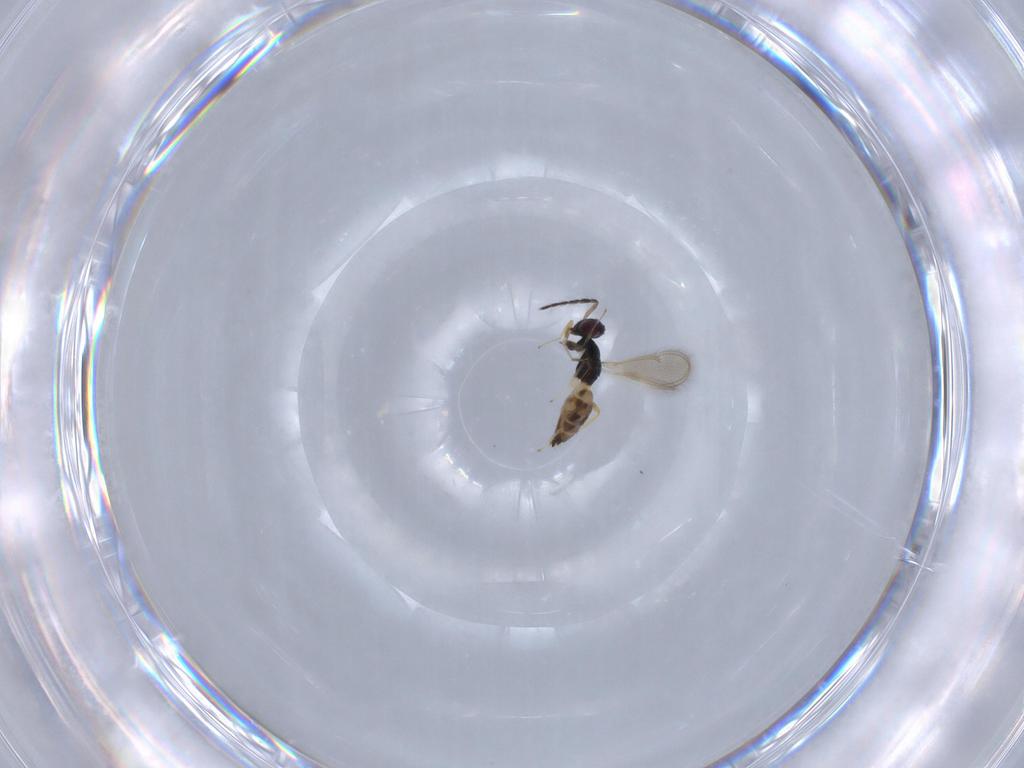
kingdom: Animalia
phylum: Arthropoda
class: Insecta
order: Hymenoptera
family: Eulophidae
